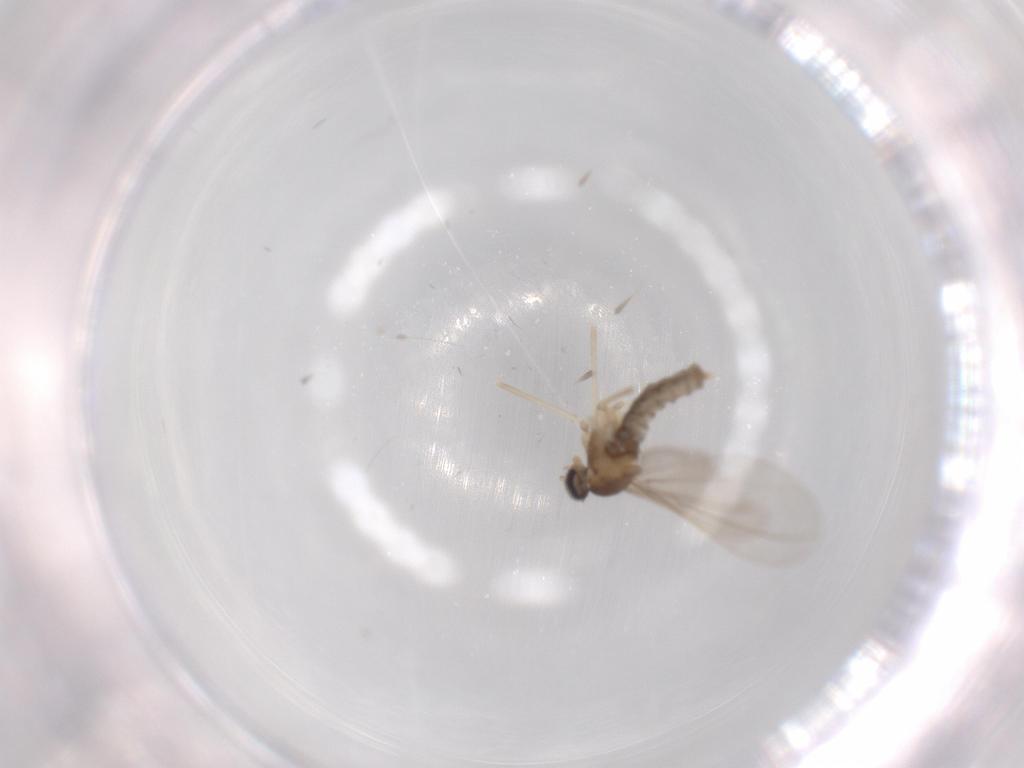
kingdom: Animalia
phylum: Arthropoda
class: Insecta
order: Diptera
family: Cecidomyiidae
